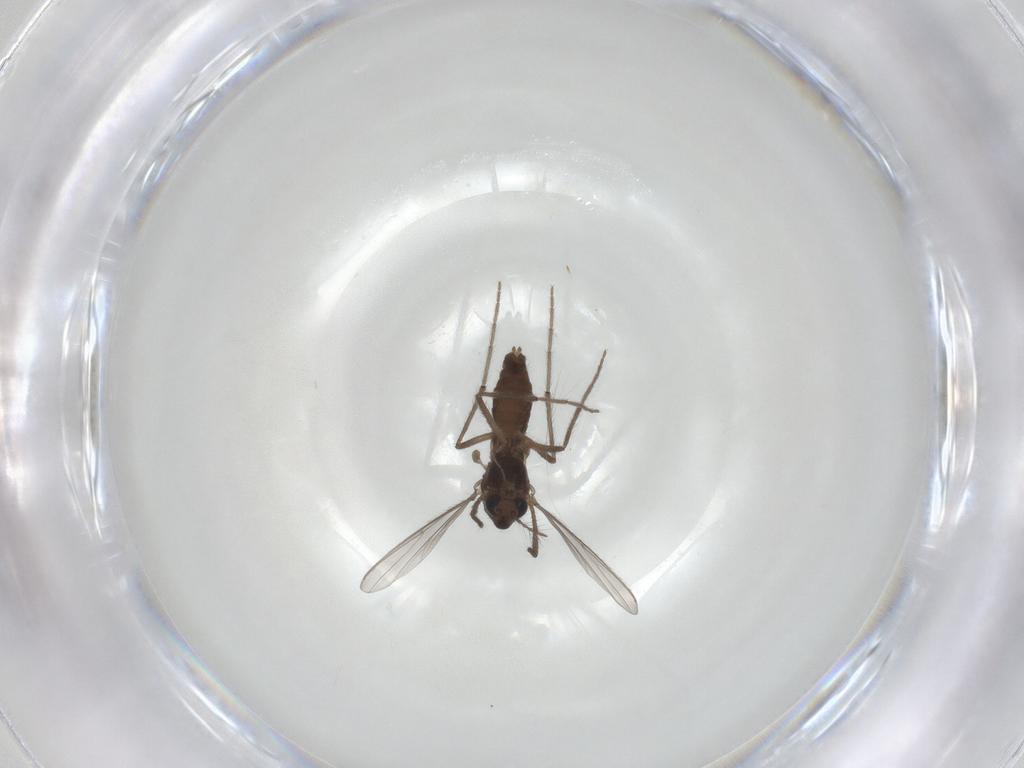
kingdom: Animalia
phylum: Arthropoda
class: Insecta
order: Diptera
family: Chironomidae
